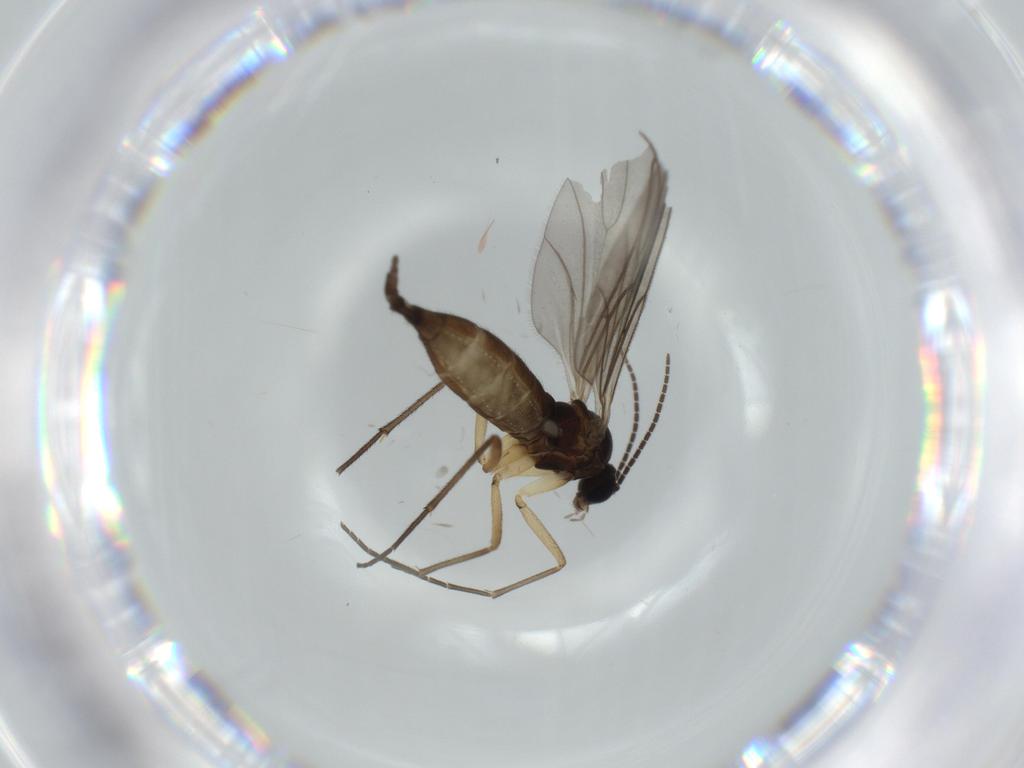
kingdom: Animalia
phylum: Arthropoda
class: Insecta
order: Diptera
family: Sciaridae
